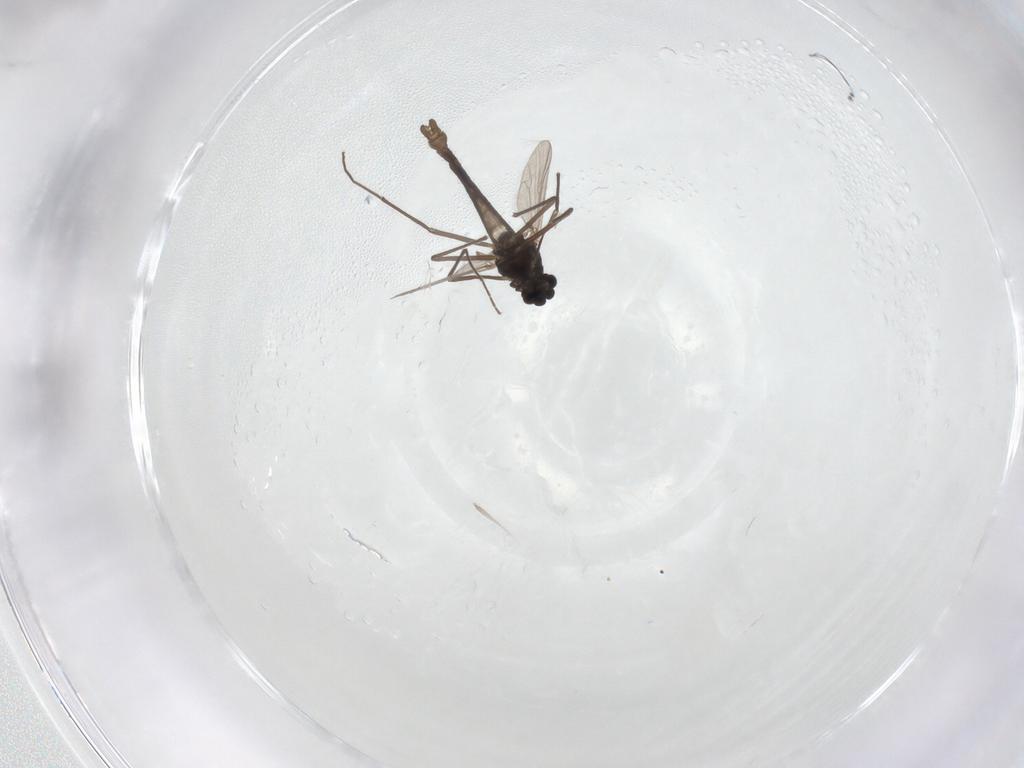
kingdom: Animalia
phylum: Arthropoda
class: Insecta
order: Diptera
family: Chironomidae
